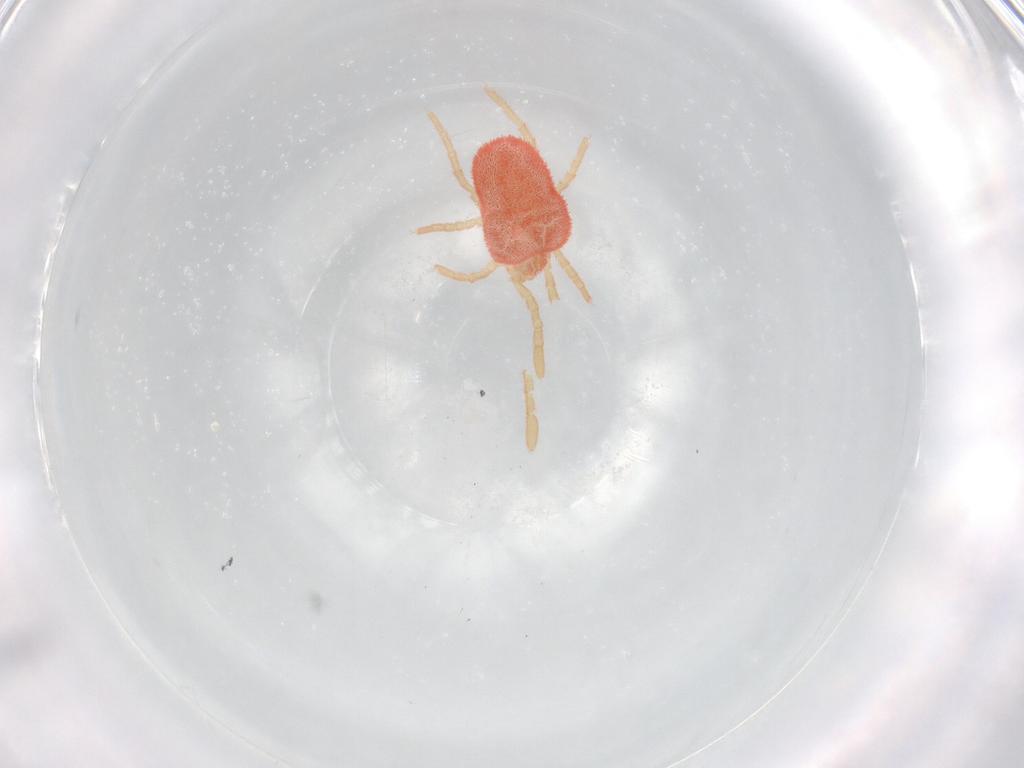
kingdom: Animalia
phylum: Arthropoda
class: Arachnida
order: Trombidiformes
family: Trombidiidae
